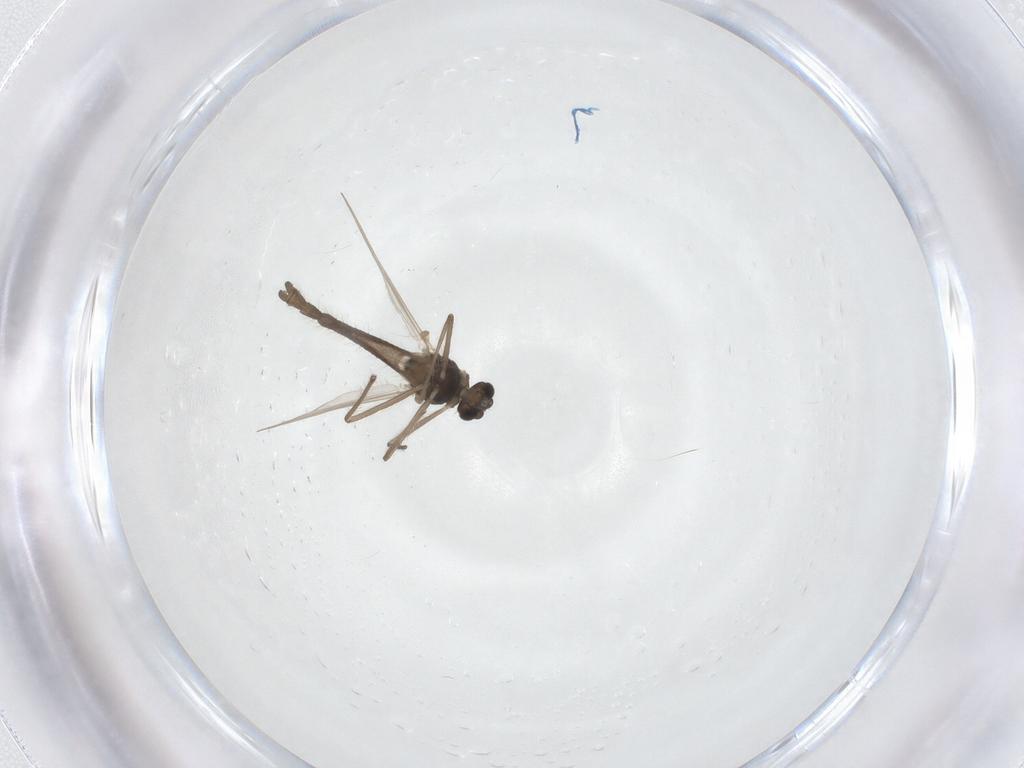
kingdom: Animalia
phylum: Arthropoda
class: Insecta
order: Diptera
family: Chironomidae
